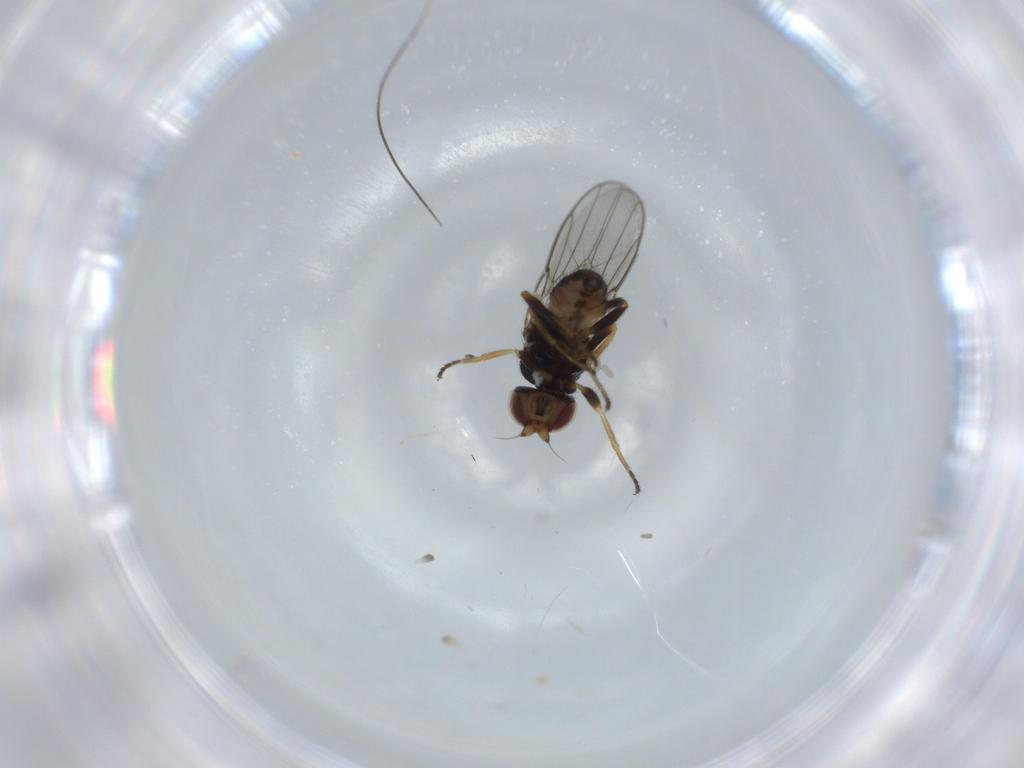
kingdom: Animalia
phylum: Arthropoda
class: Insecta
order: Diptera
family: Chloropidae
